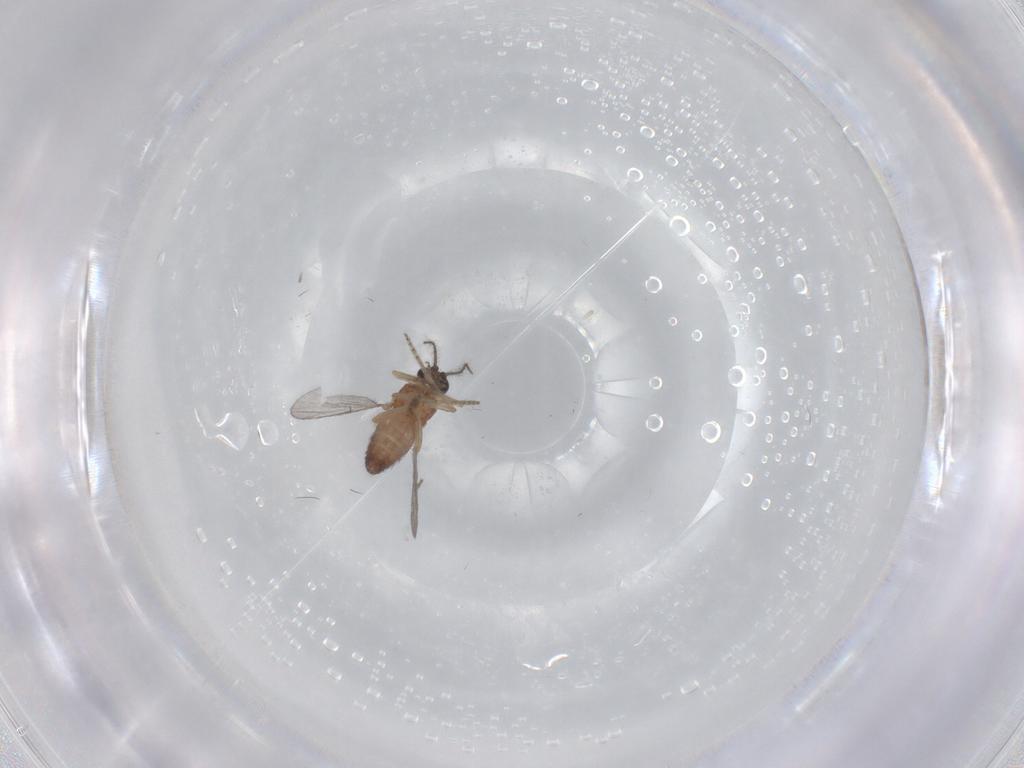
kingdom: Animalia
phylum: Arthropoda
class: Insecta
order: Diptera
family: Ceratopogonidae
